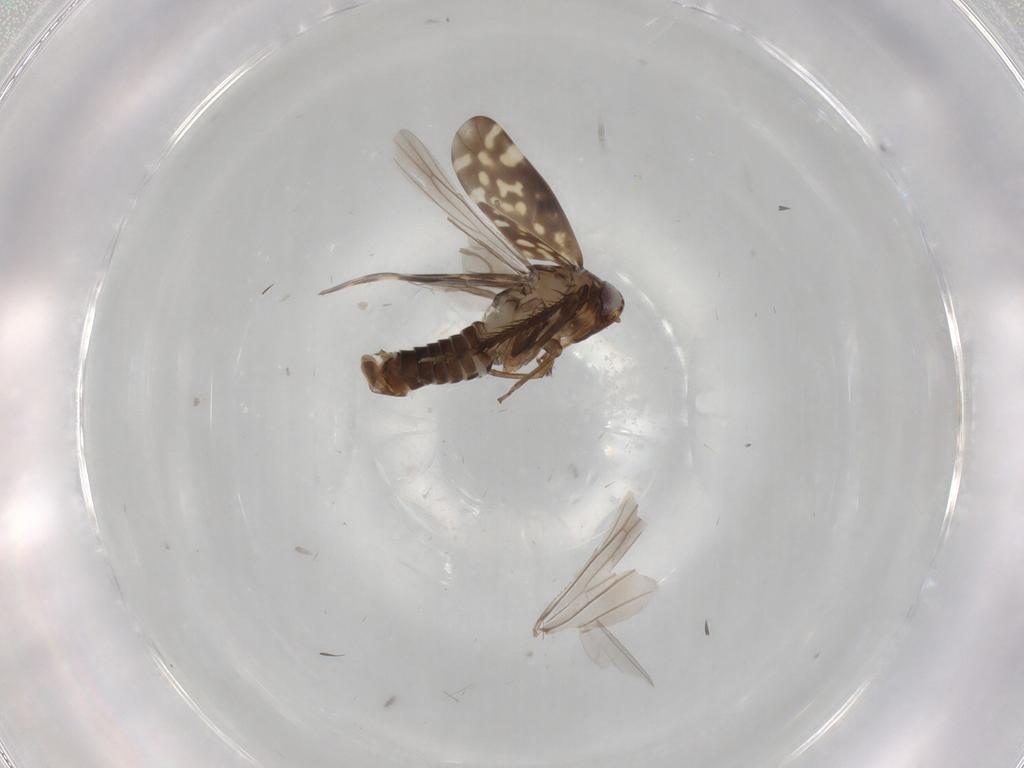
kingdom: Animalia
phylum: Arthropoda
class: Insecta
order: Hemiptera
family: Cicadellidae
